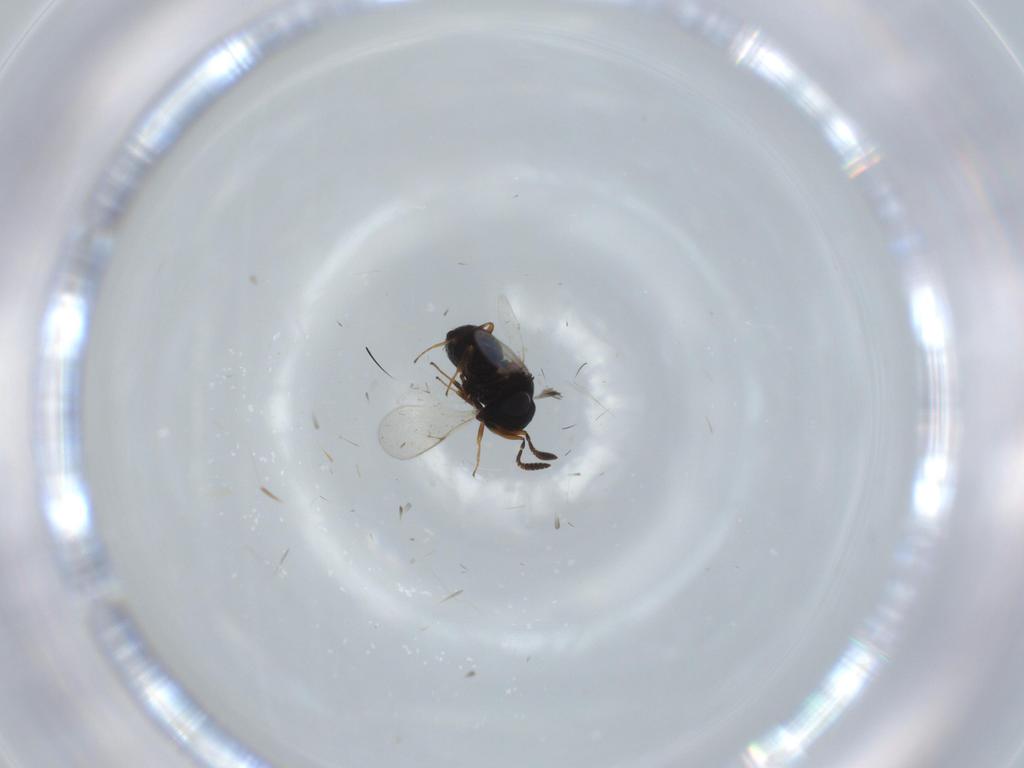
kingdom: Animalia
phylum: Arthropoda
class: Insecta
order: Hymenoptera
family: Scelionidae
